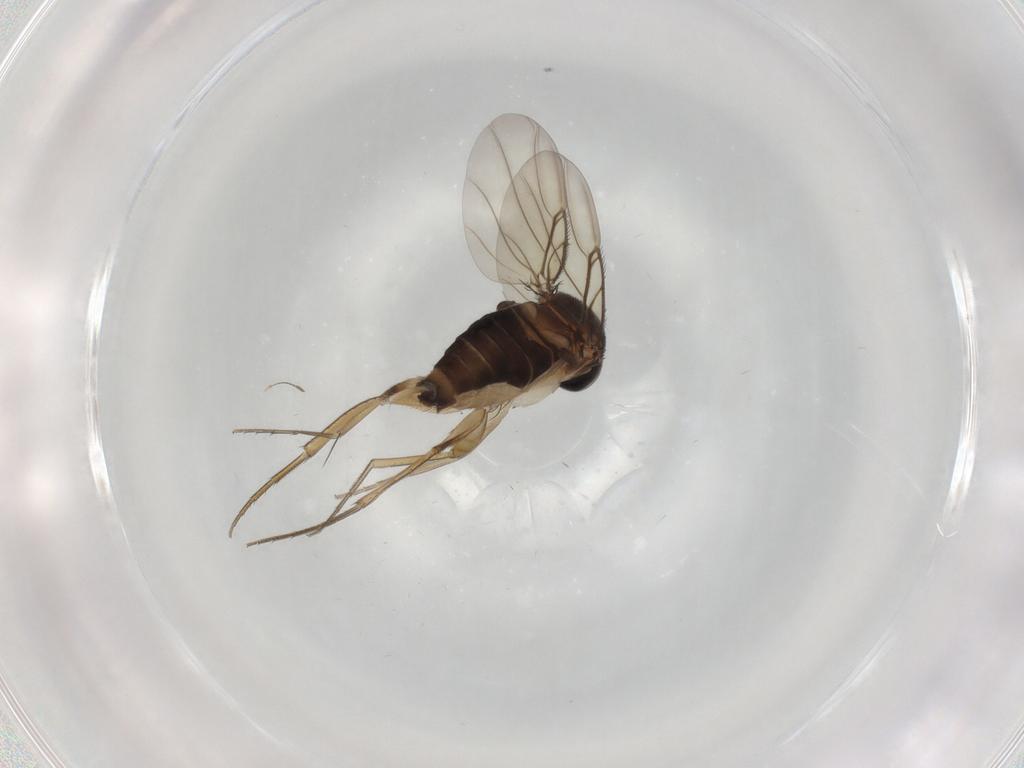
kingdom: Animalia
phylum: Arthropoda
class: Insecta
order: Diptera
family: Phoridae
